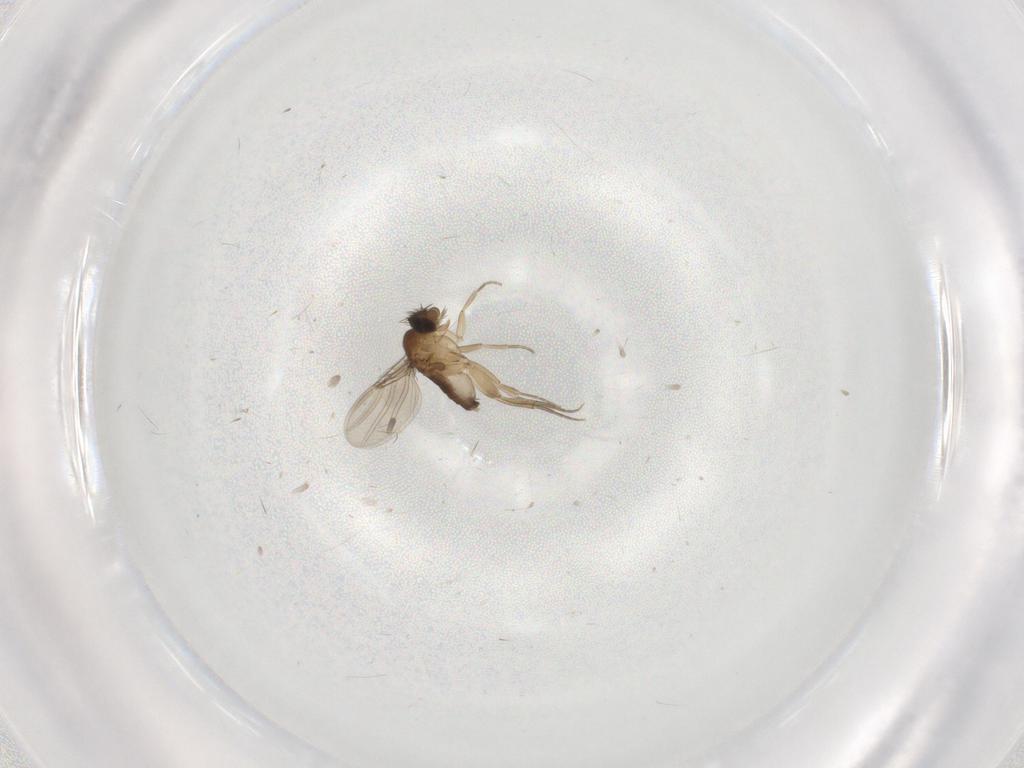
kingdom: Animalia
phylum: Arthropoda
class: Insecta
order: Diptera
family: Phoridae
